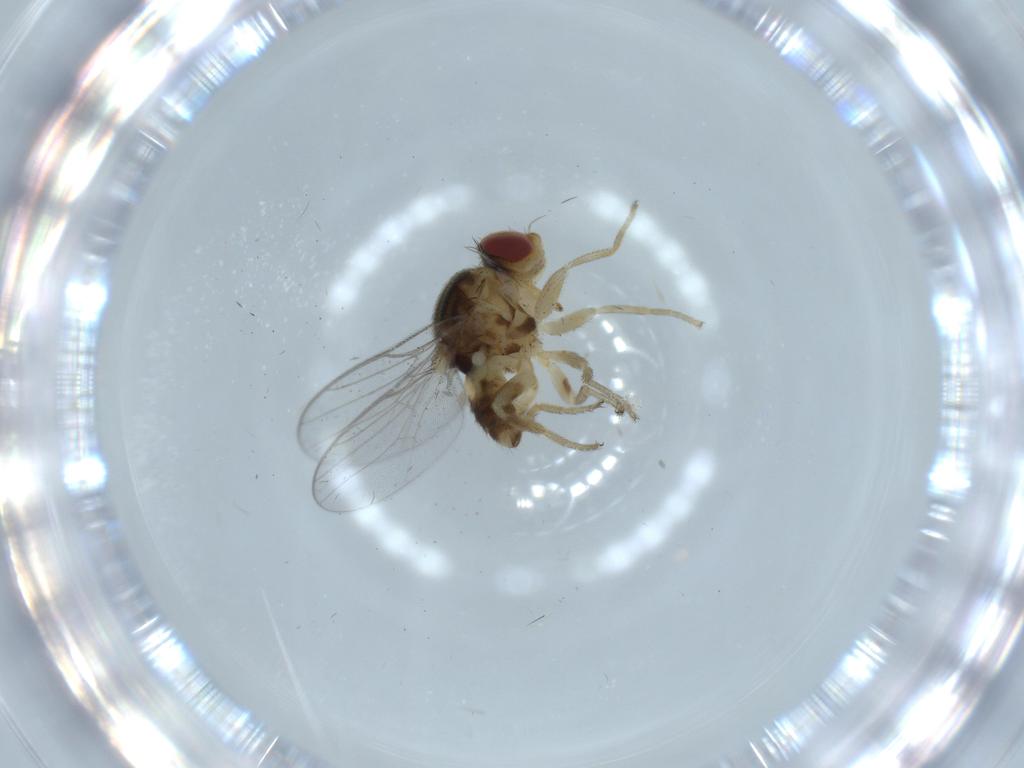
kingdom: Animalia
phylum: Arthropoda
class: Insecta
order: Diptera
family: Chloropidae
